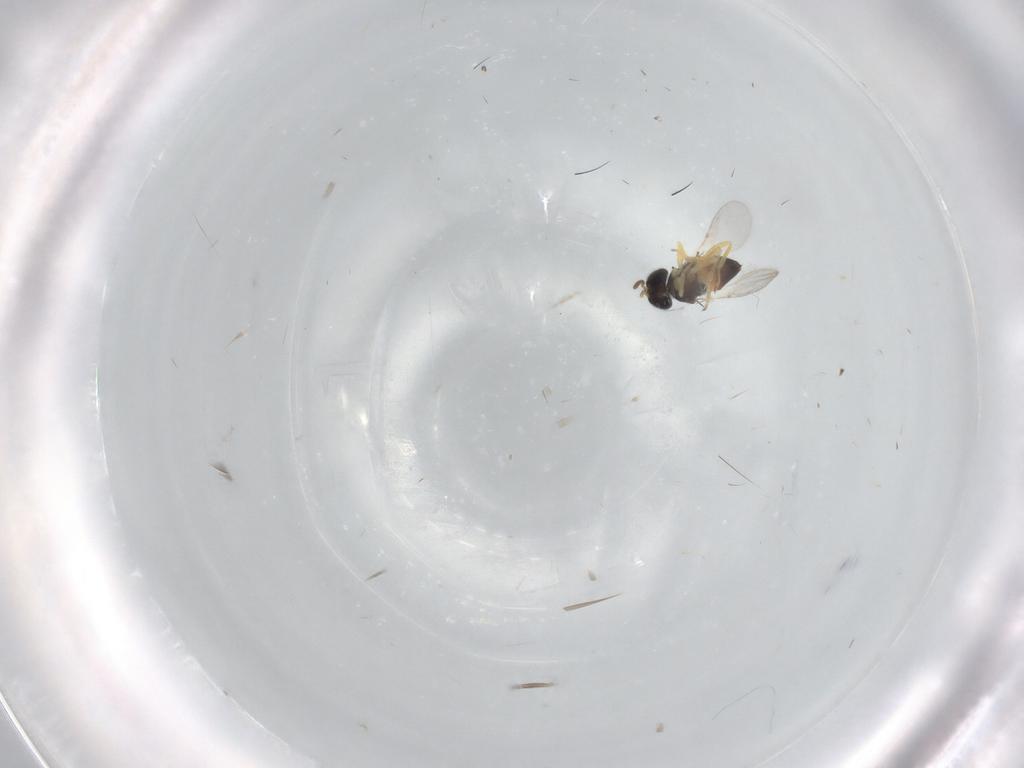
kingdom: Animalia
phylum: Arthropoda
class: Insecta
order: Hymenoptera
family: Encyrtidae
